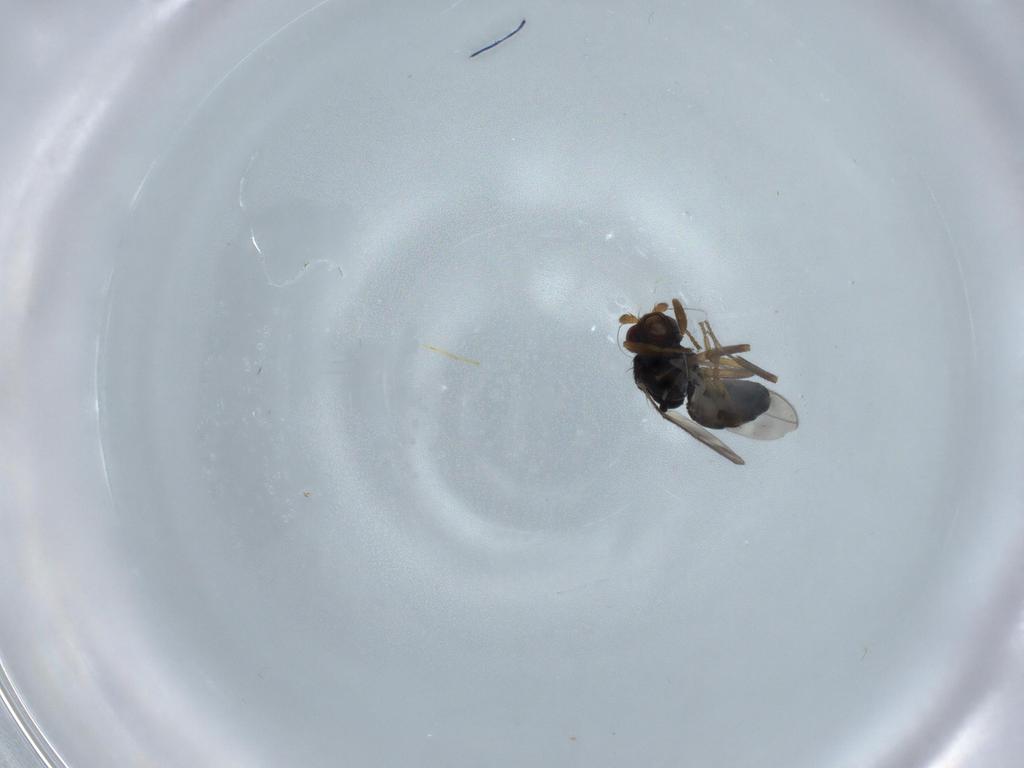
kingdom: Animalia
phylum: Arthropoda
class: Insecta
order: Diptera
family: Sphaeroceridae
